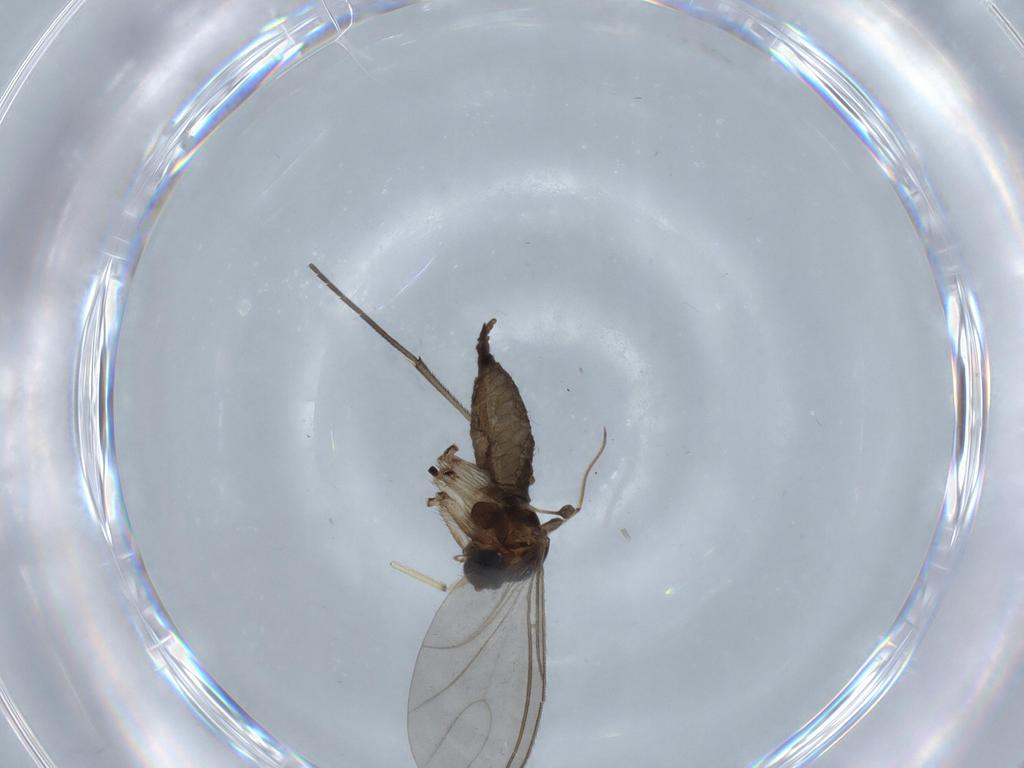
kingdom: Animalia
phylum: Arthropoda
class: Insecta
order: Diptera
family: Sciaridae
